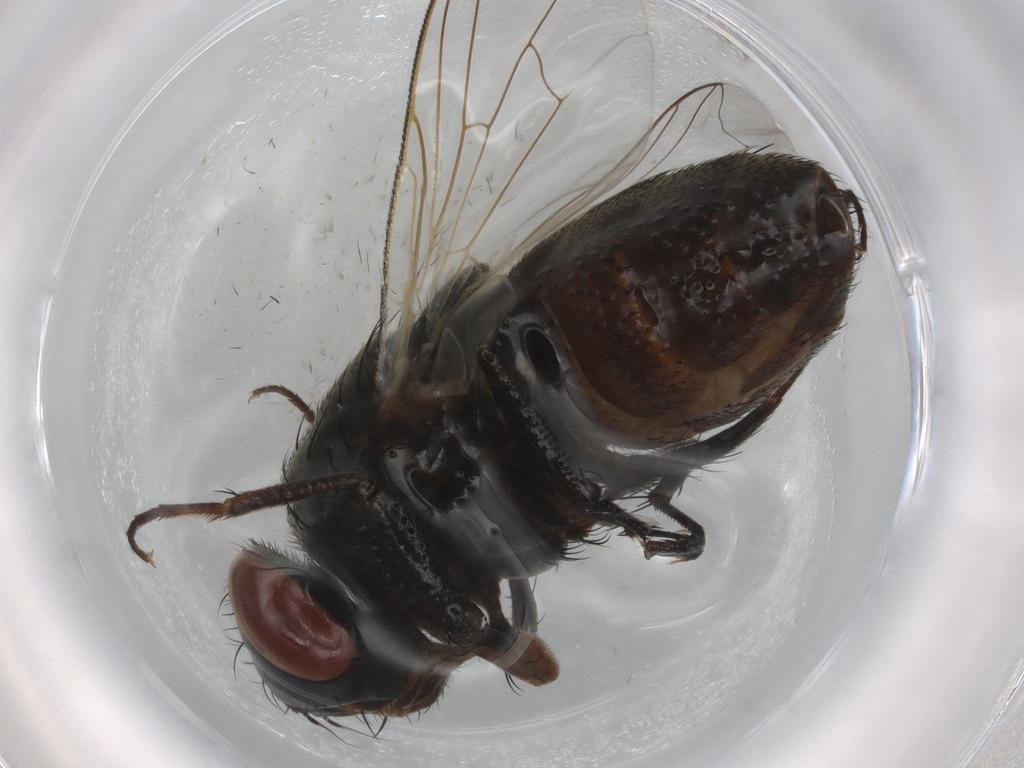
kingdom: Animalia
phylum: Arthropoda
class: Insecta
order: Diptera
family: Sarcophagidae
